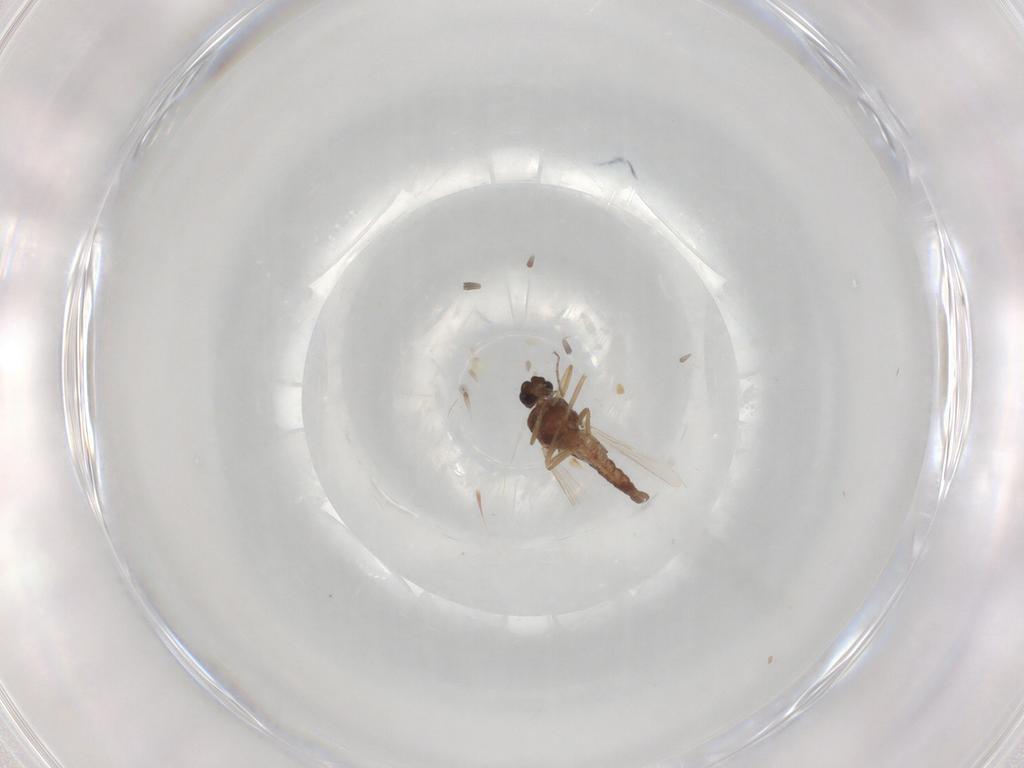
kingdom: Animalia
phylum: Arthropoda
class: Insecta
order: Diptera
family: Ceratopogonidae
